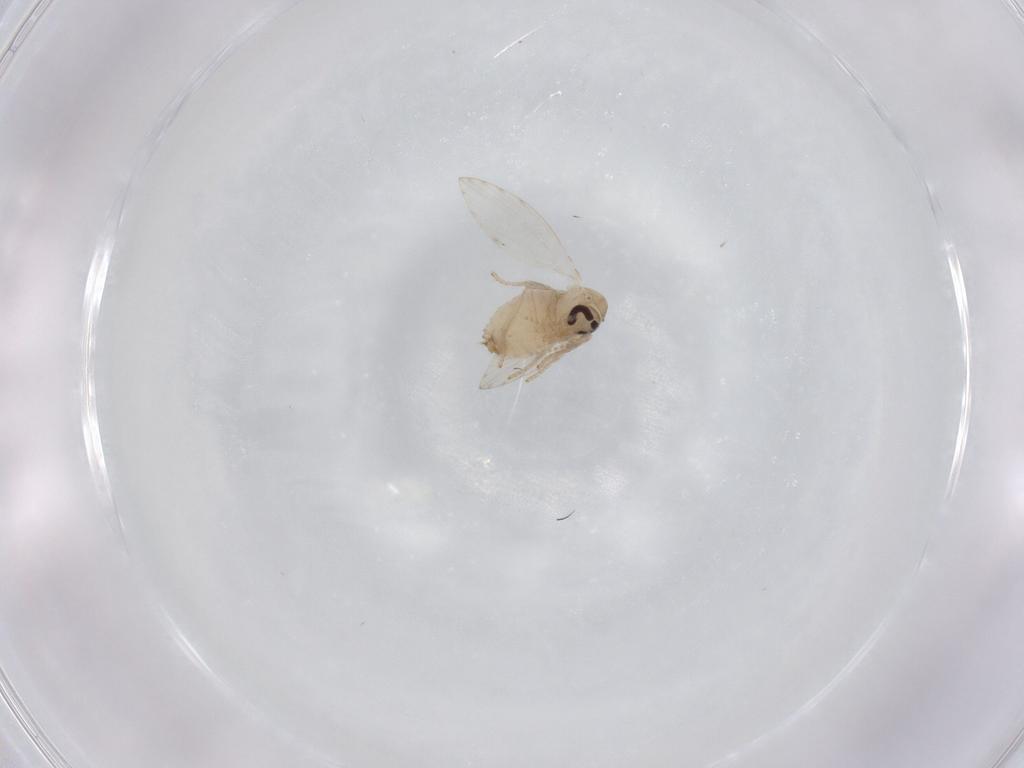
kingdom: Animalia
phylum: Arthropoda
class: Insecta
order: Diptera
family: Psychodidae
